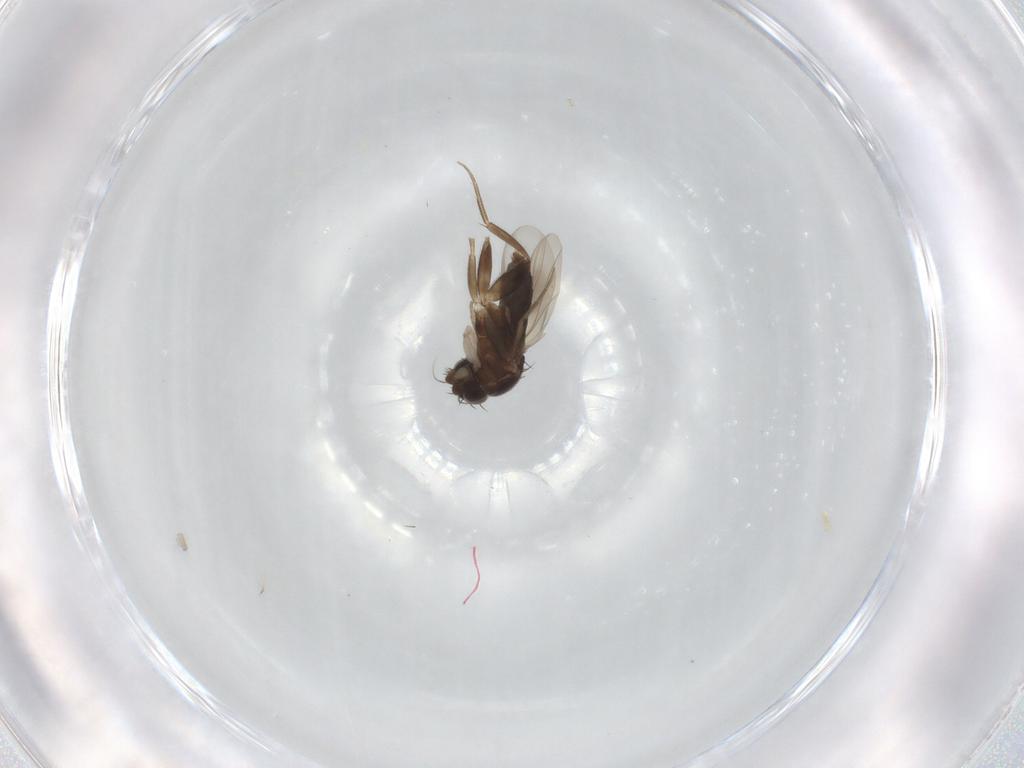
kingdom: Animalia
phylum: Arthropoda
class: Insecta
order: Diptera
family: Phoridae
